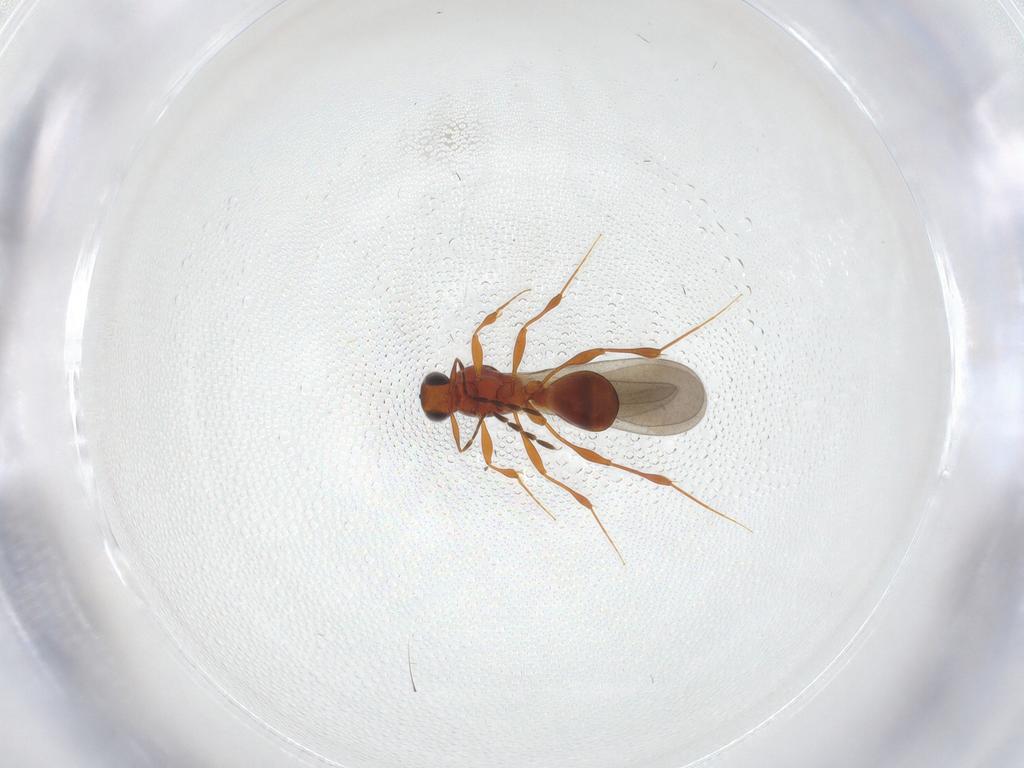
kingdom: Animalia
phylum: Arthropoda
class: Insecta
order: Hymenoptera
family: Platygastridae
